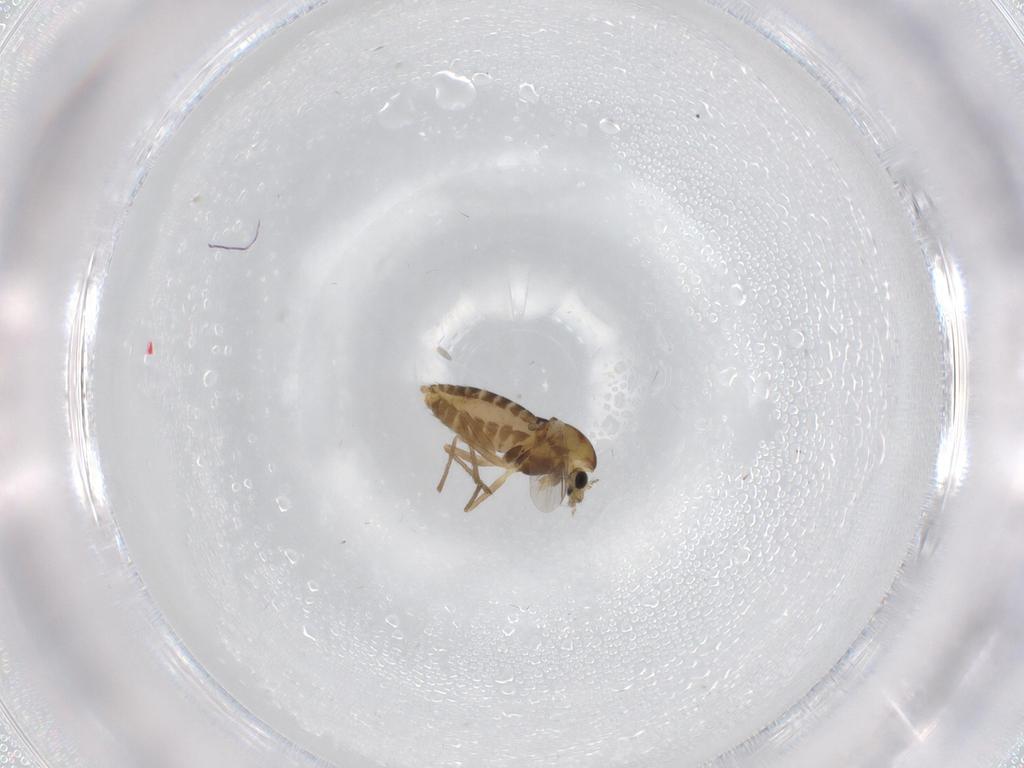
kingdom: Animalia
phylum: Arthropoda
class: Insecta
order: Diptera
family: Chironomidae
